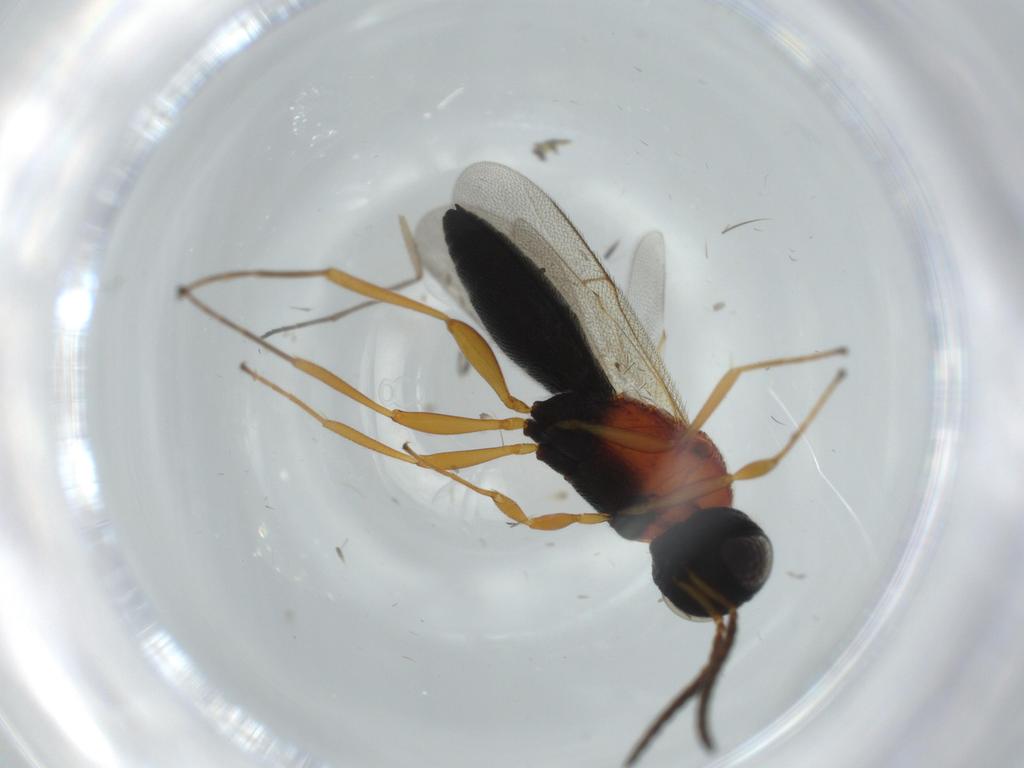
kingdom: Animalia
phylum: Arthropoda
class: Insecta
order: Hymenoptera
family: Scelionidae
